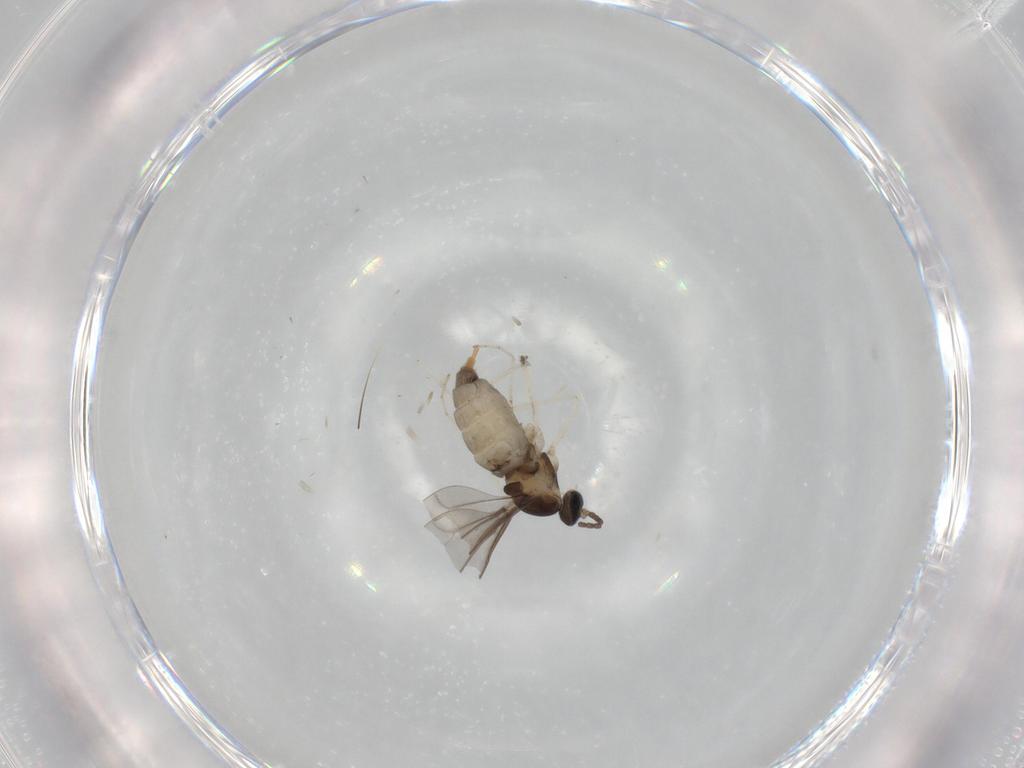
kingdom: Animalia
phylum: Arthropoda
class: Insecta
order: Diptera
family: Cecidomyiidae
